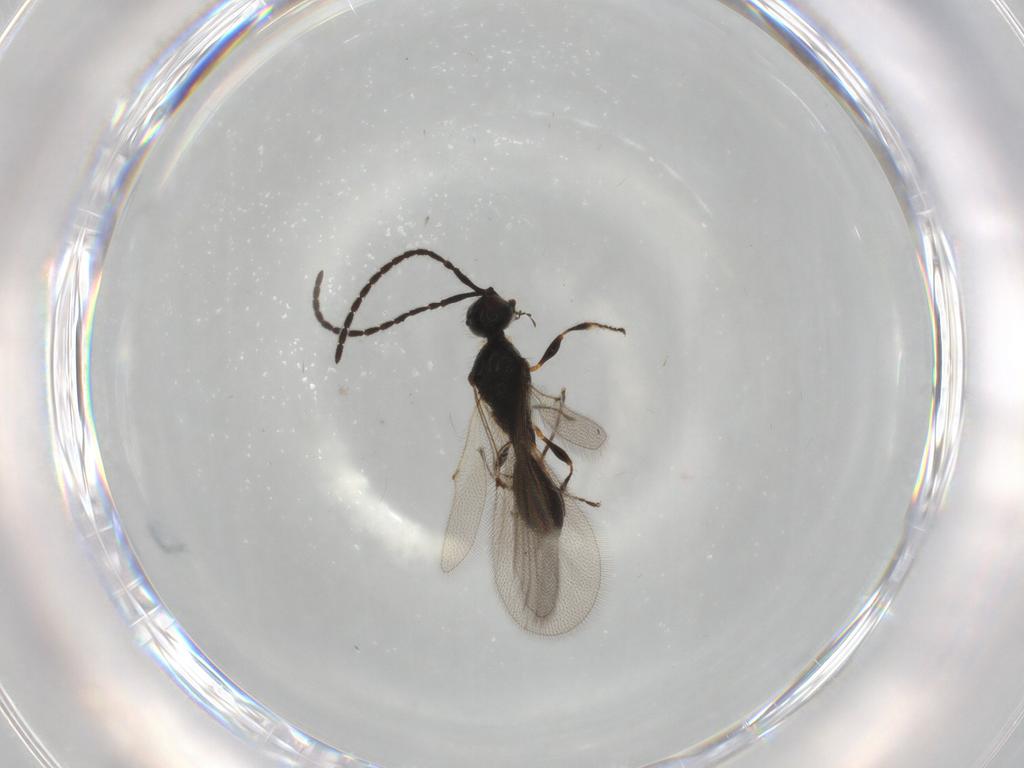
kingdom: Animalia
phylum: Arthropoda
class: Insecta
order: Hymenoptera
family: Diapriidae
